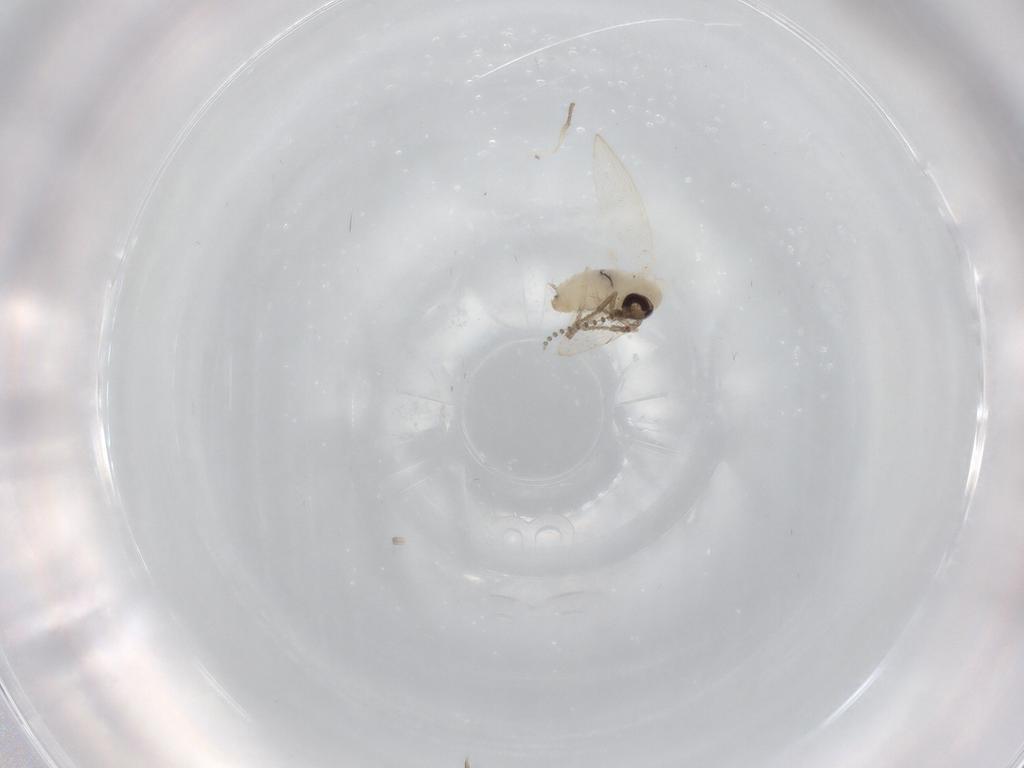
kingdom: Animalia
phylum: Arthropoda
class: Insecta
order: Diptera
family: Psychodidae
